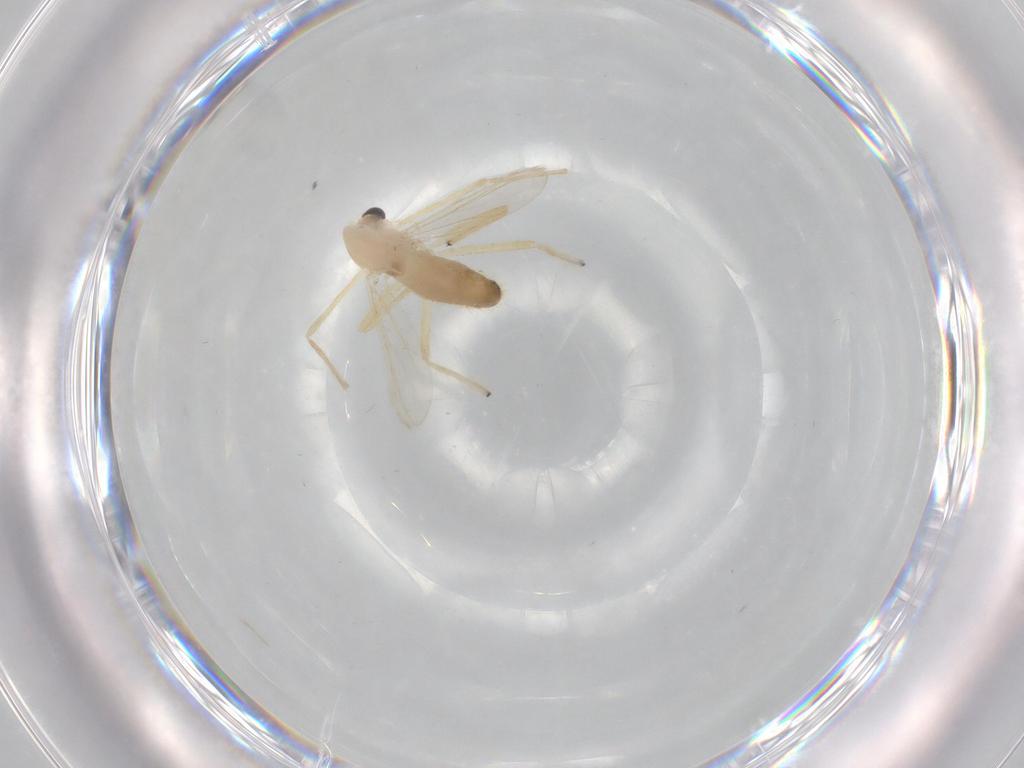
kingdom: Animalia
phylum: Arthropoda
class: Insecta
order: Diptera
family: Chironomidae
